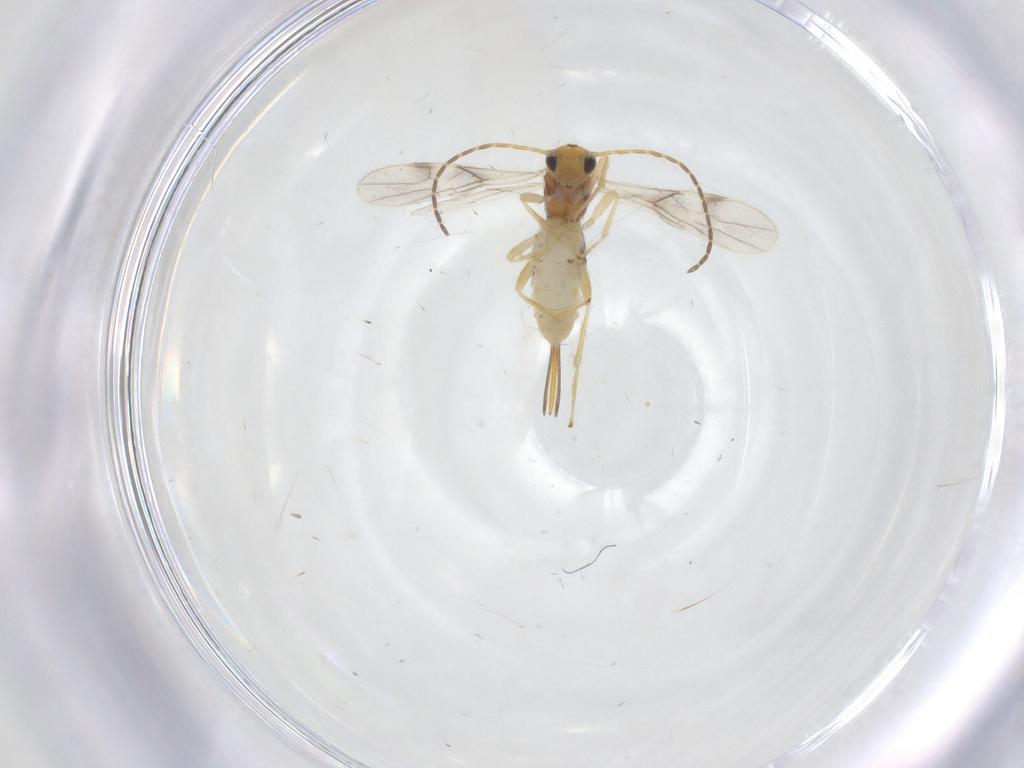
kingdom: Animalia
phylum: Arthropoda
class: Insecta
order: Hymenoptera
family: Braconidae
